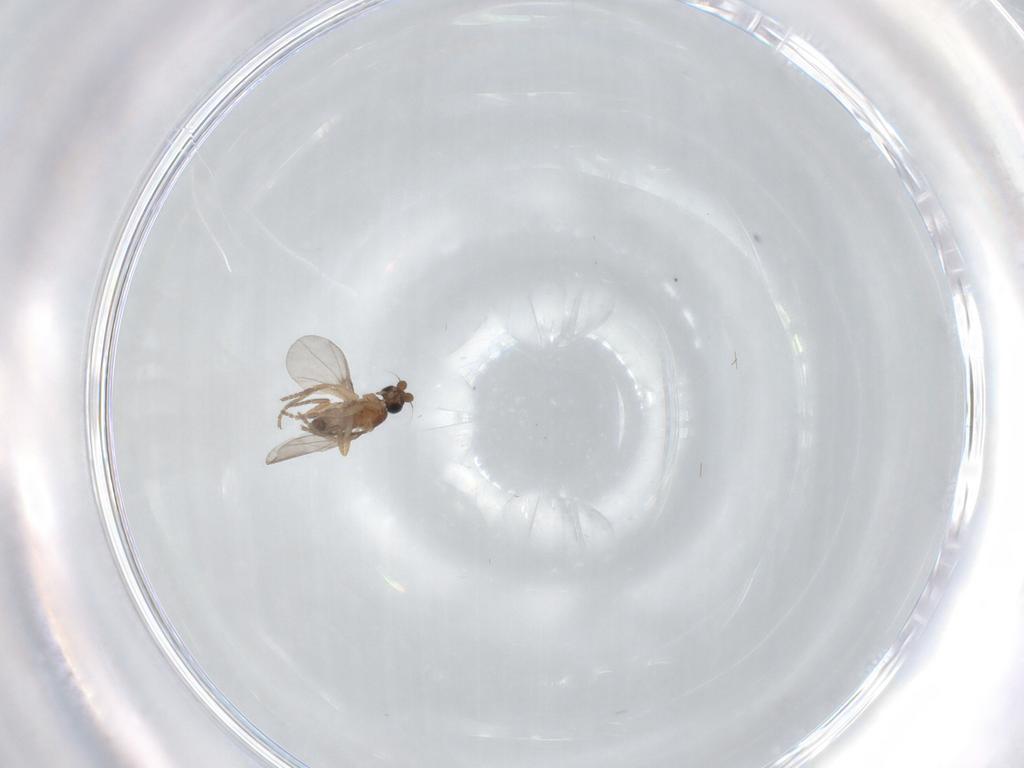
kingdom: Animalia
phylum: Arthropoda
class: Insecta
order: Diptera
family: Phoridae
